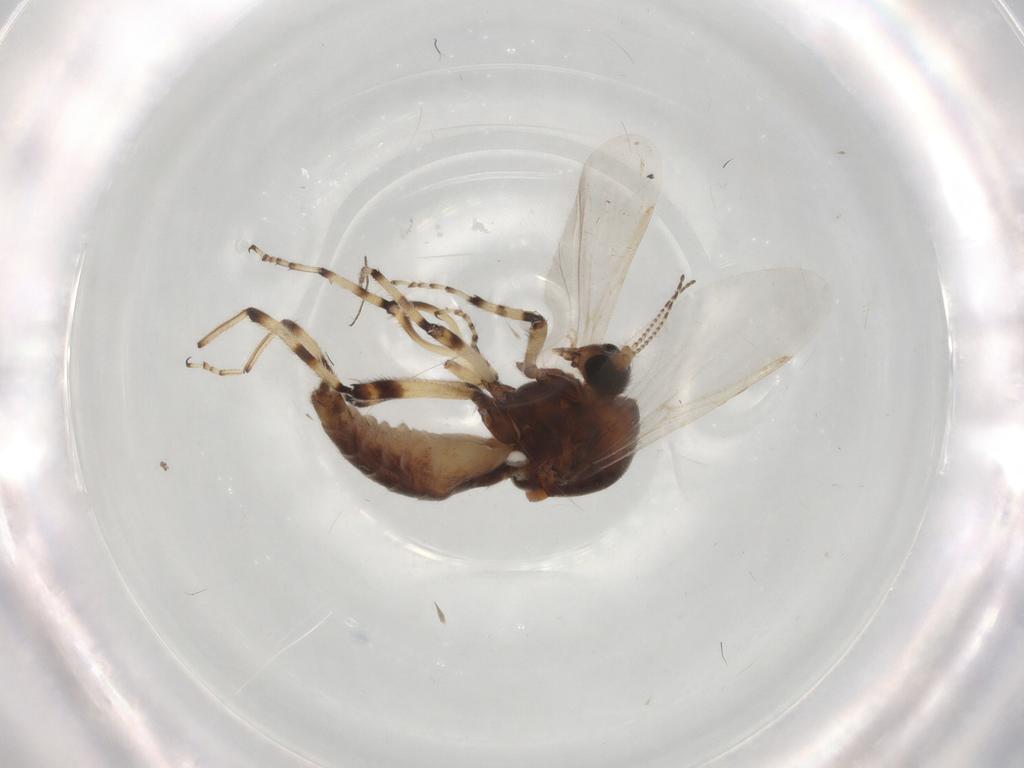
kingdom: Animalia
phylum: Arthropoda
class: Insecta
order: Diptera
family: Ceratopogonidae
